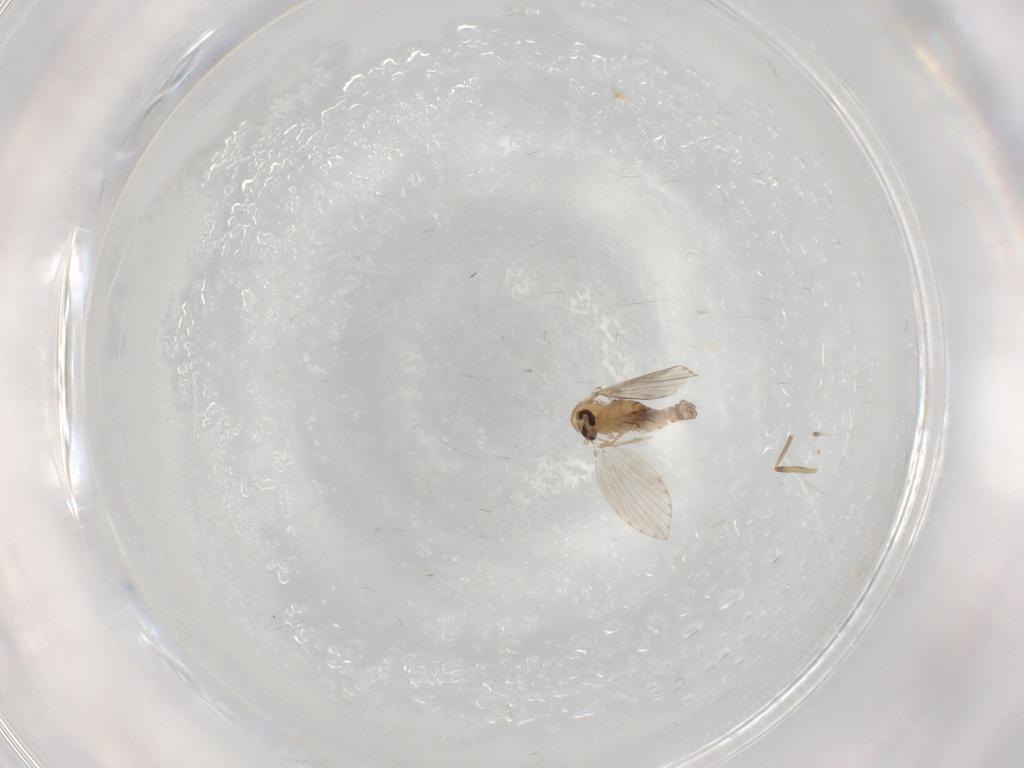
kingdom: Animalia
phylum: Arthropoda
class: Insecta
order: Diptera
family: Psychodidae
